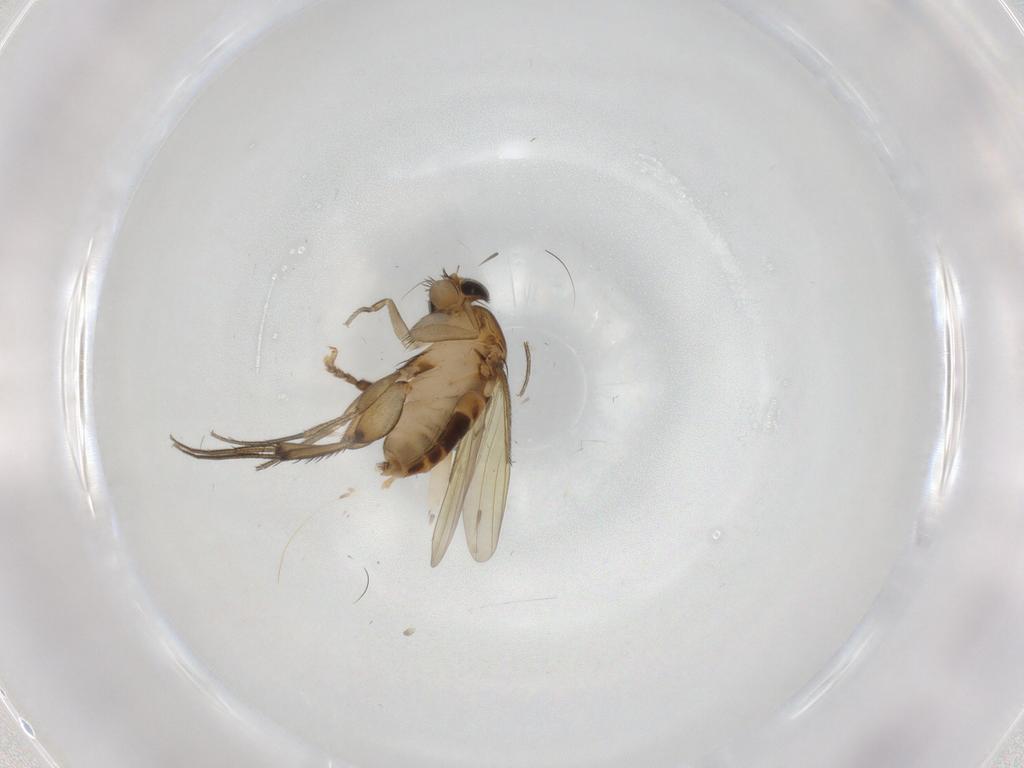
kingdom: Animalia
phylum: Arthropoda
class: Insecta
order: Diptera
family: Phoridae
